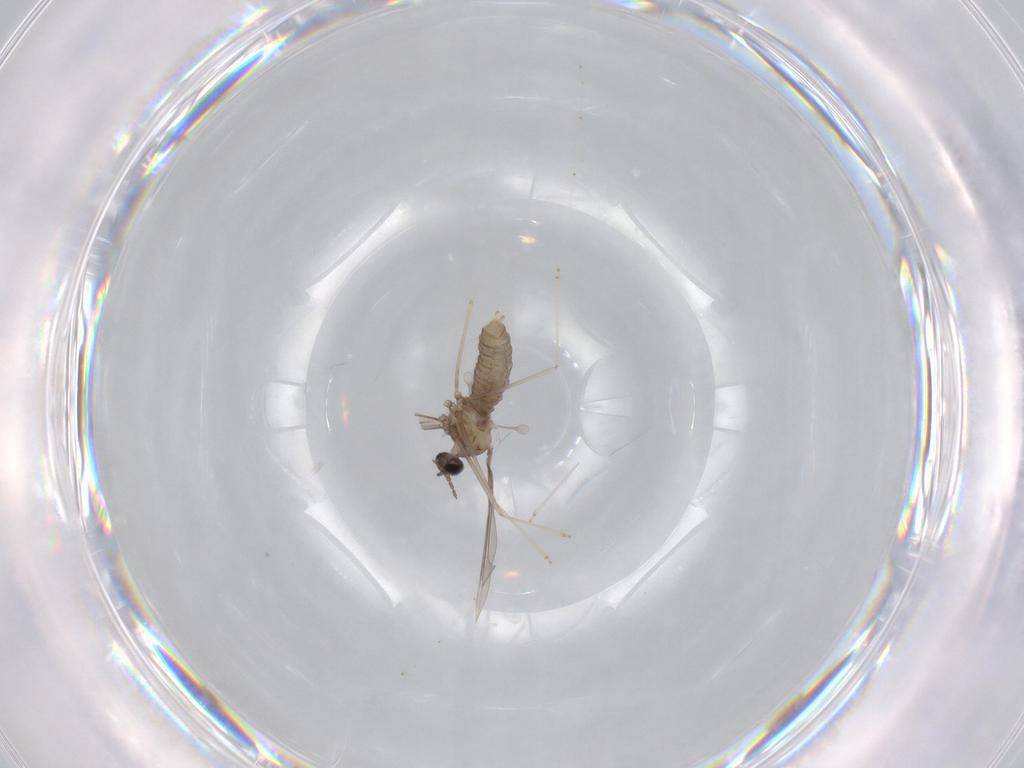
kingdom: Animalia
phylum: Arthropoda
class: Insecta
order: Diptera
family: Cecidomyiidae
